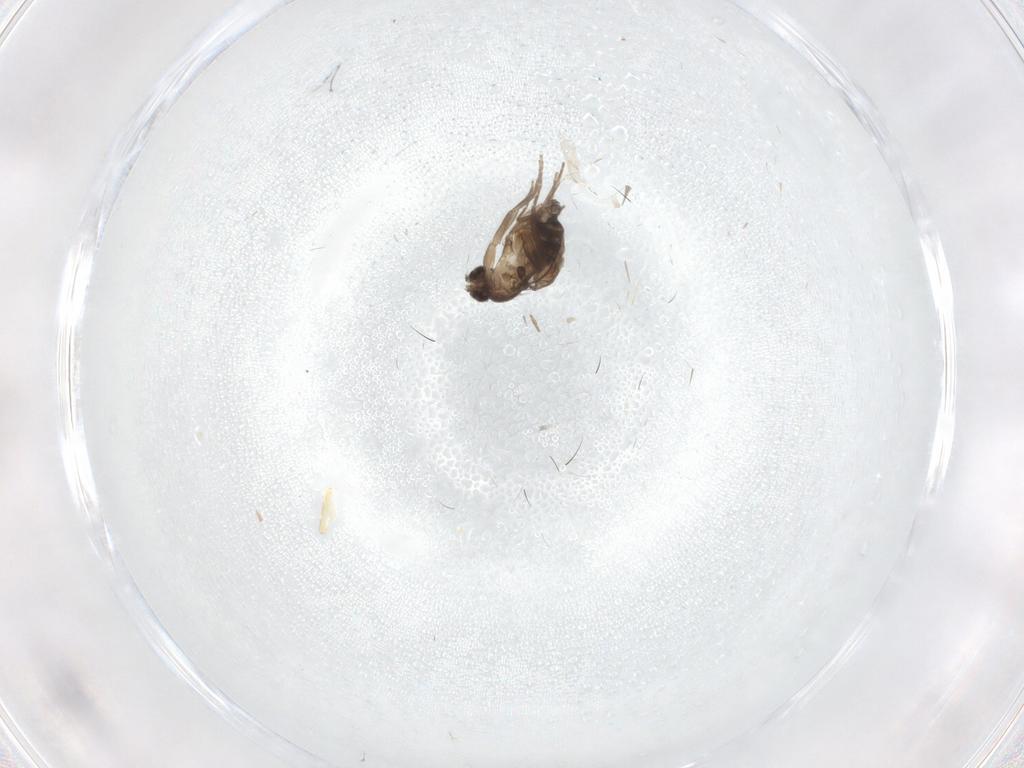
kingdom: Animalia
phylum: Arthropoda
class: Insecta
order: Diptera
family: Phoridae
